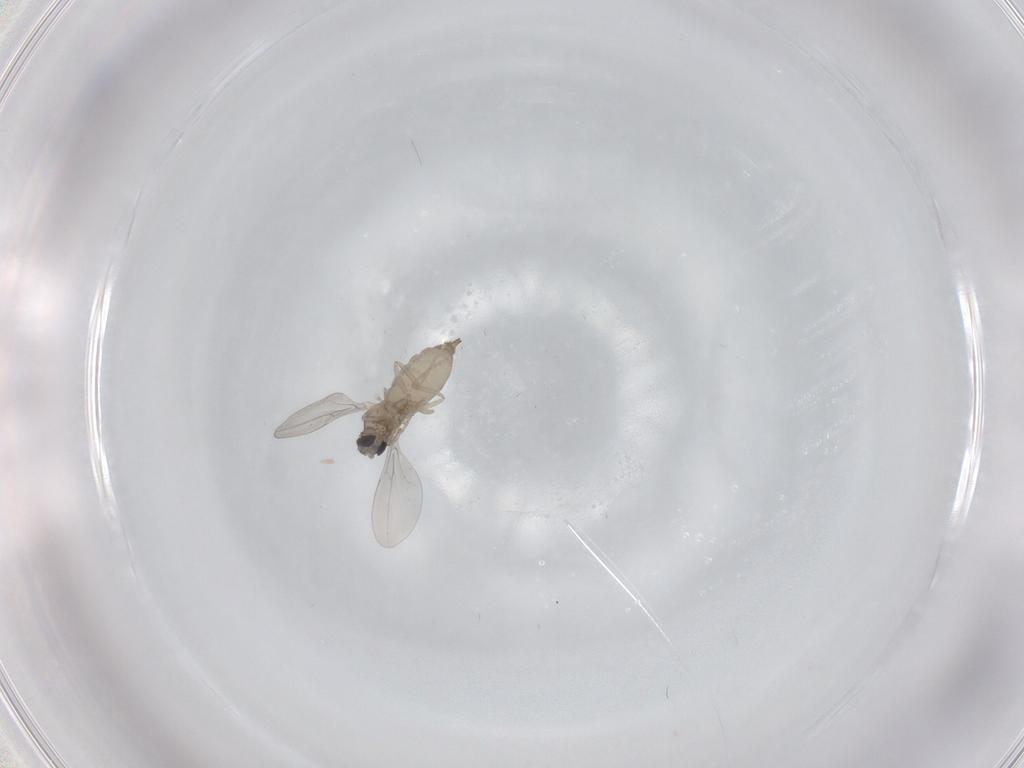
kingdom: Animalia
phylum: Arthropoda
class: Insecta
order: Diptera
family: Cecidomyiidae
